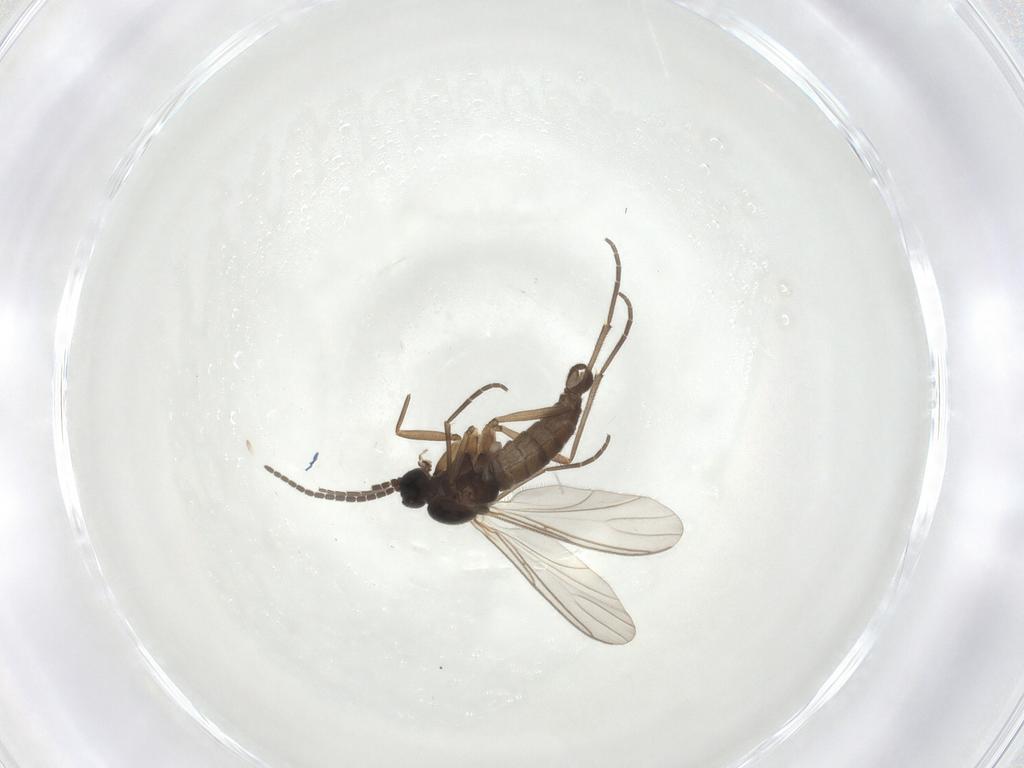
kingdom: Animalia
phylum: Arthropoda
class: Insecta
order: Diptera
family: Sciaridae
